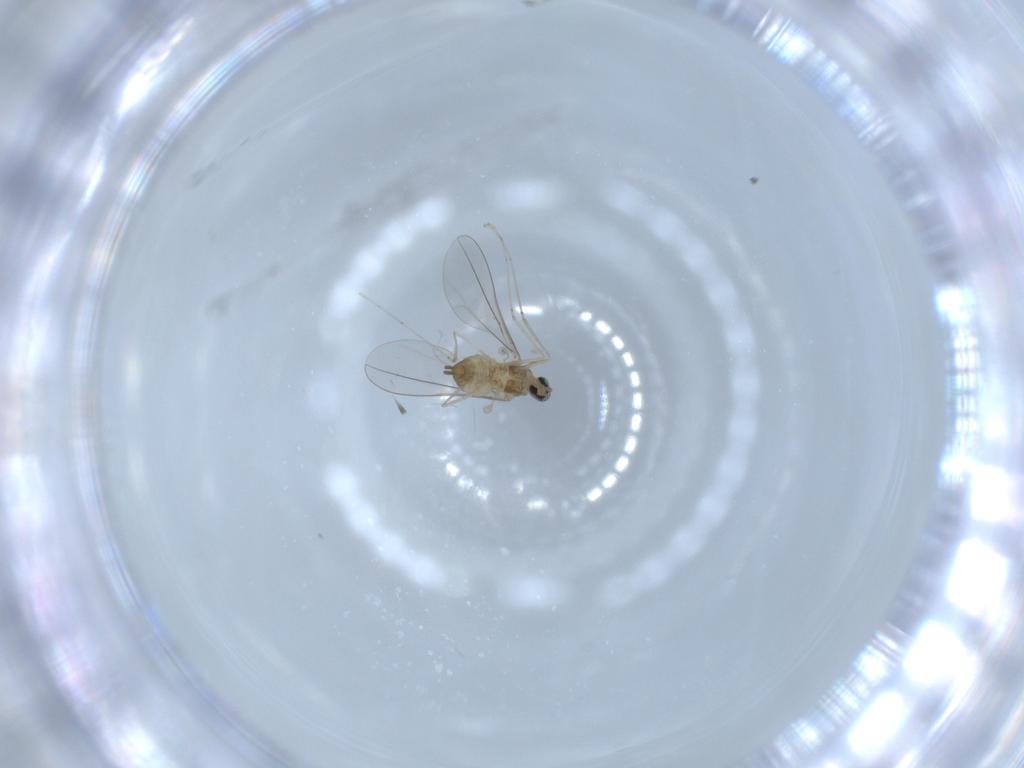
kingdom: Animalia
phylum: Arthropoda
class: Insecta
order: Diptera
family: Cecidomyiidae
